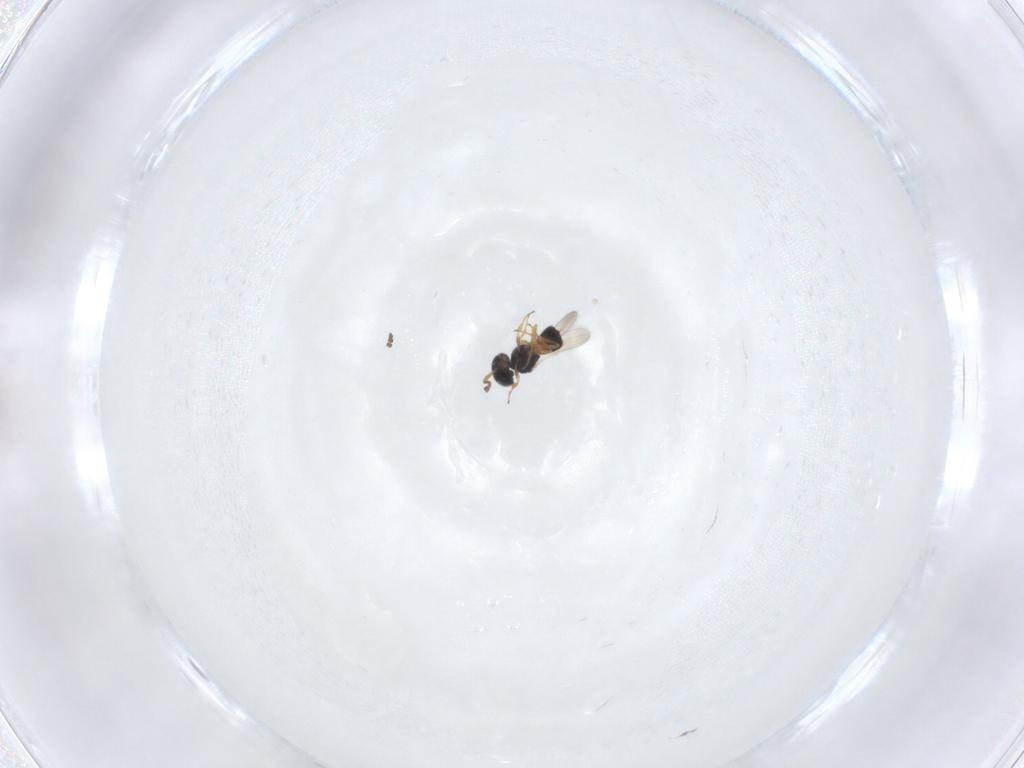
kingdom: Animalia
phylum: Arthropoda
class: Insecta
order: Hymenoptera
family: Scelionidae
